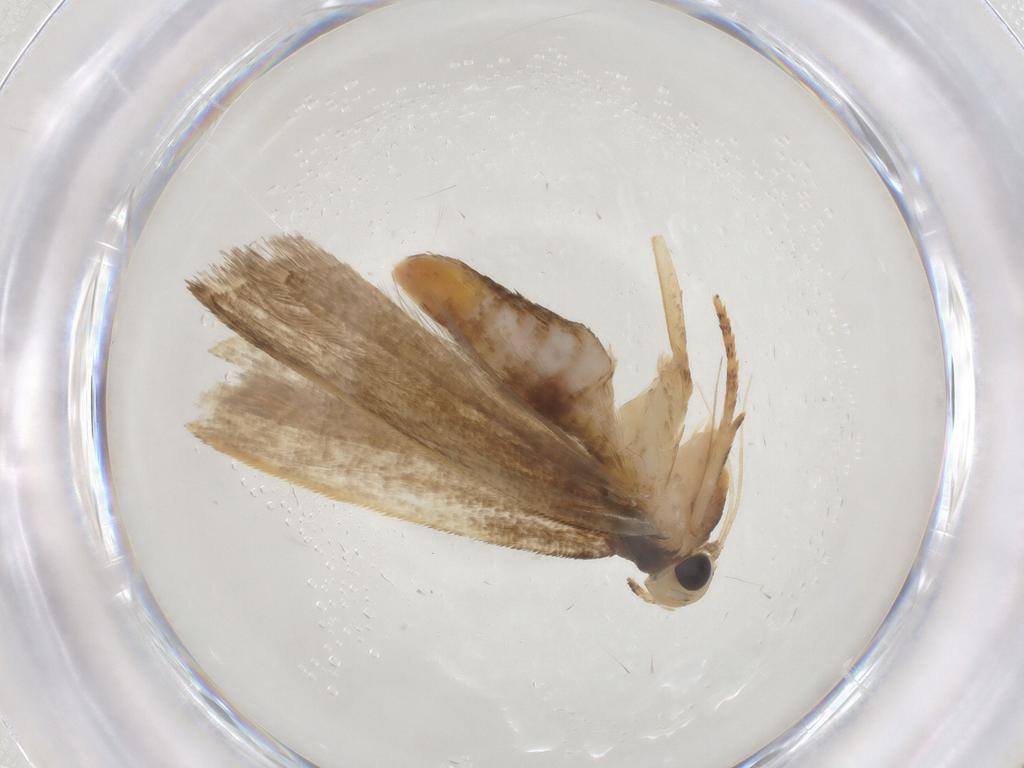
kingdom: Animalia
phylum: Arthropoda
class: Insecta
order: Lepidoptera
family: Gelechiidae
